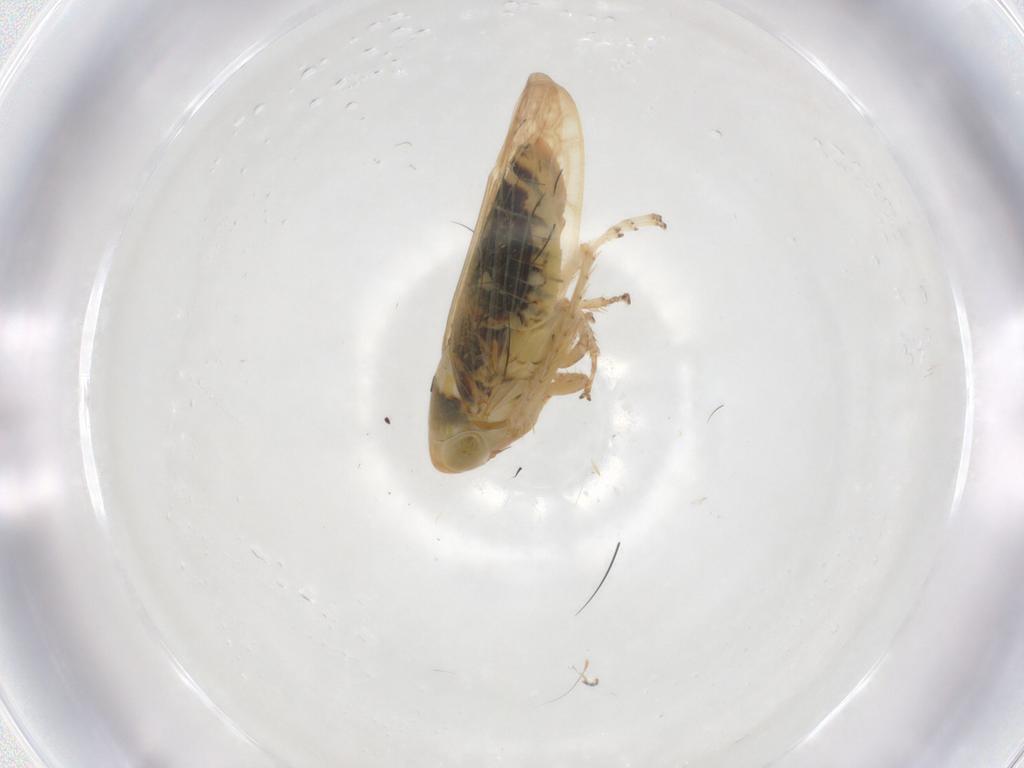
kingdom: Animalia
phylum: Arthropoda
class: Insecta
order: Hemiptera
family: Cicadellidae
